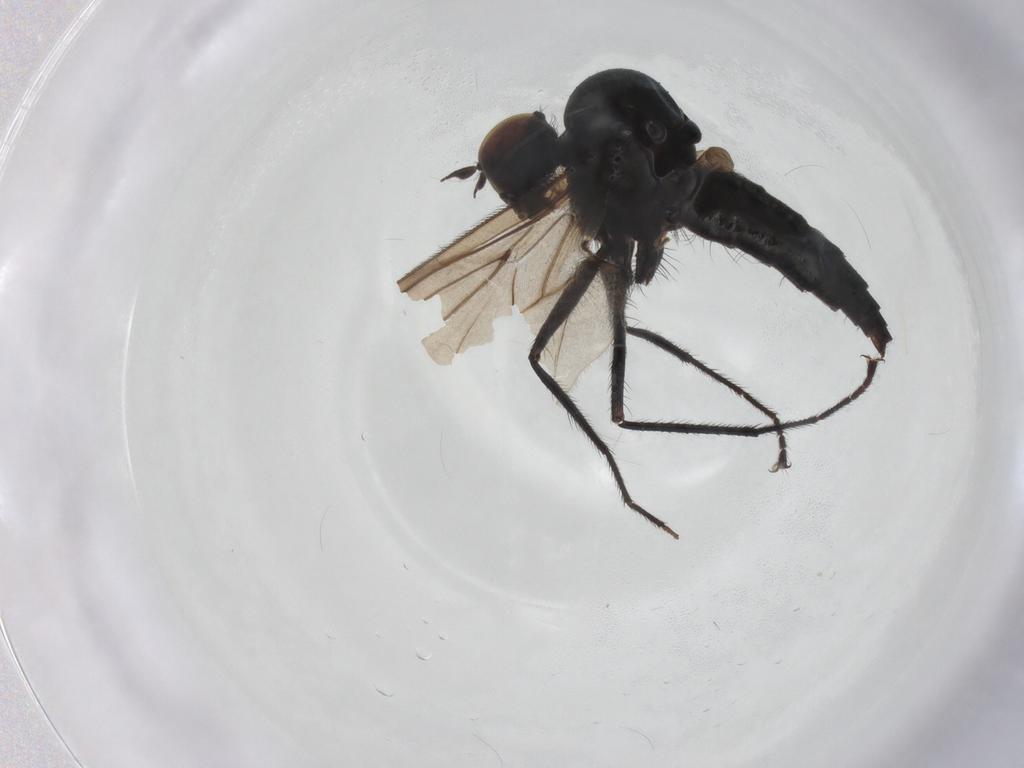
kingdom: Animalia
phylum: Arthropoda
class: Insecta
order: Diptera
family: Hybotidae
